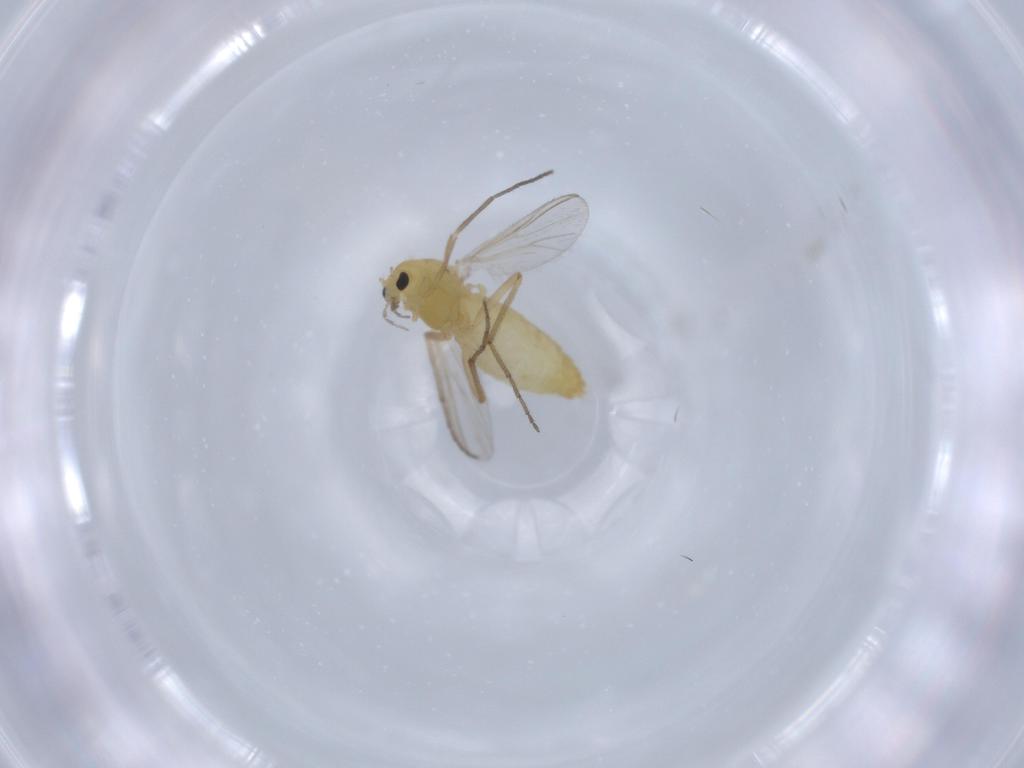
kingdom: Animalia
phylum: Arthropoda
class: Insecta
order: Diptera
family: Chironomidae
